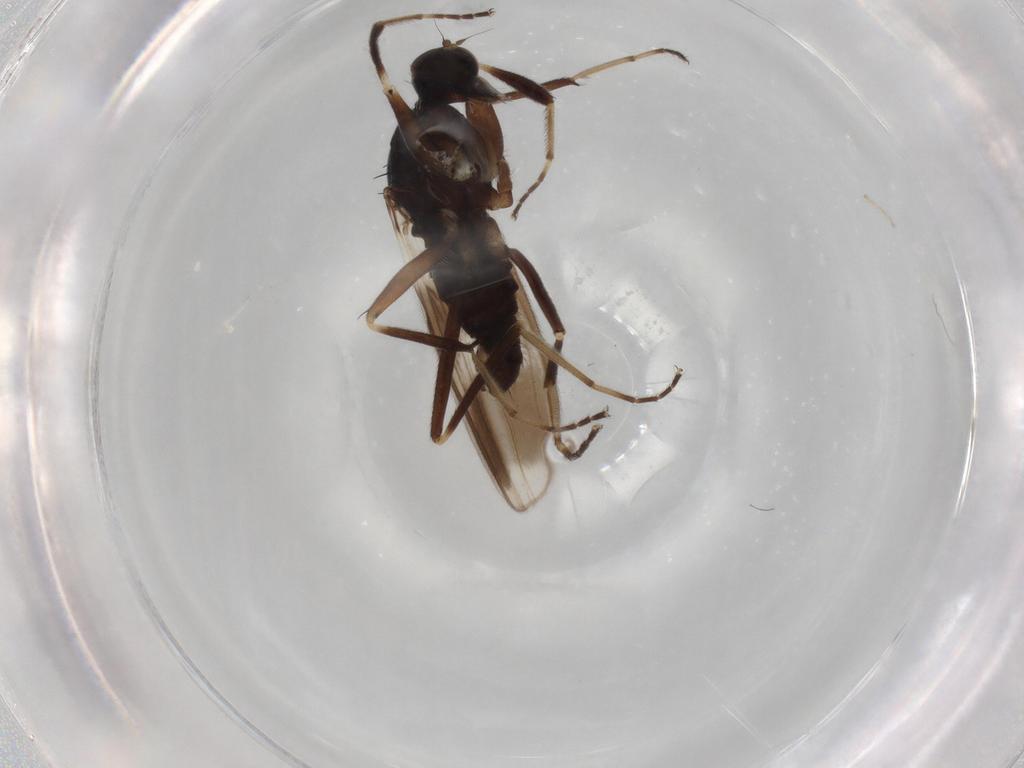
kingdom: Animalia
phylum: Arthropoda
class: Insecta
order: Diptera
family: Hybotidae
